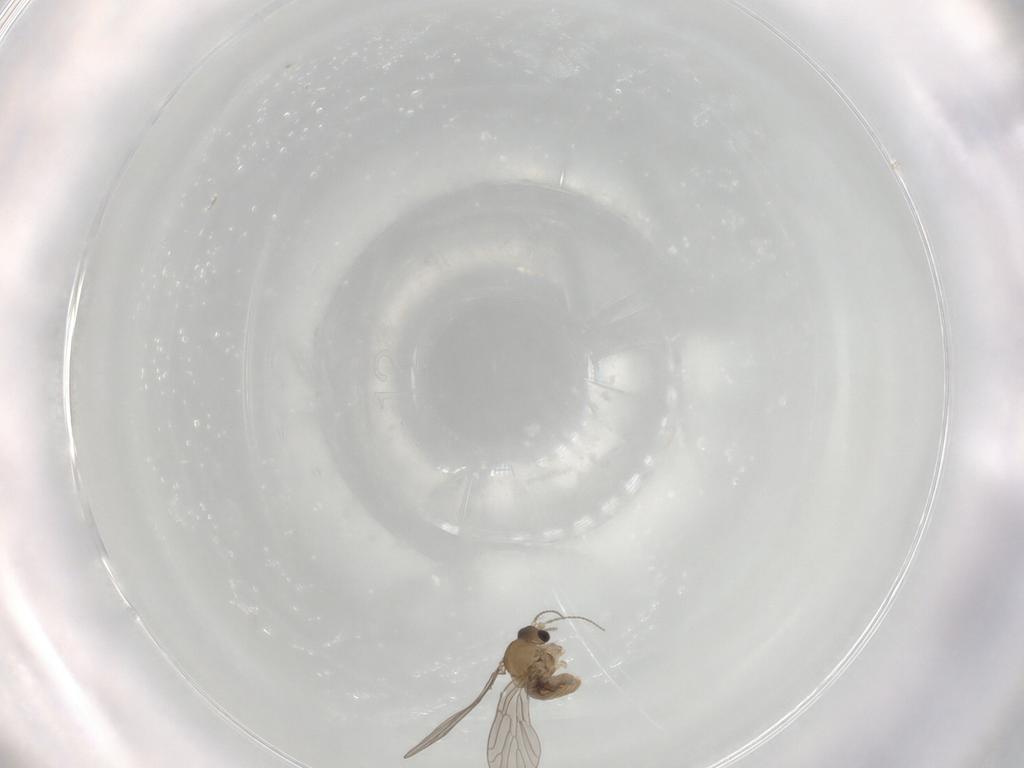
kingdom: Animalia
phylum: Arthropoda
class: Insecta
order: Diptera
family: Psychodidae
